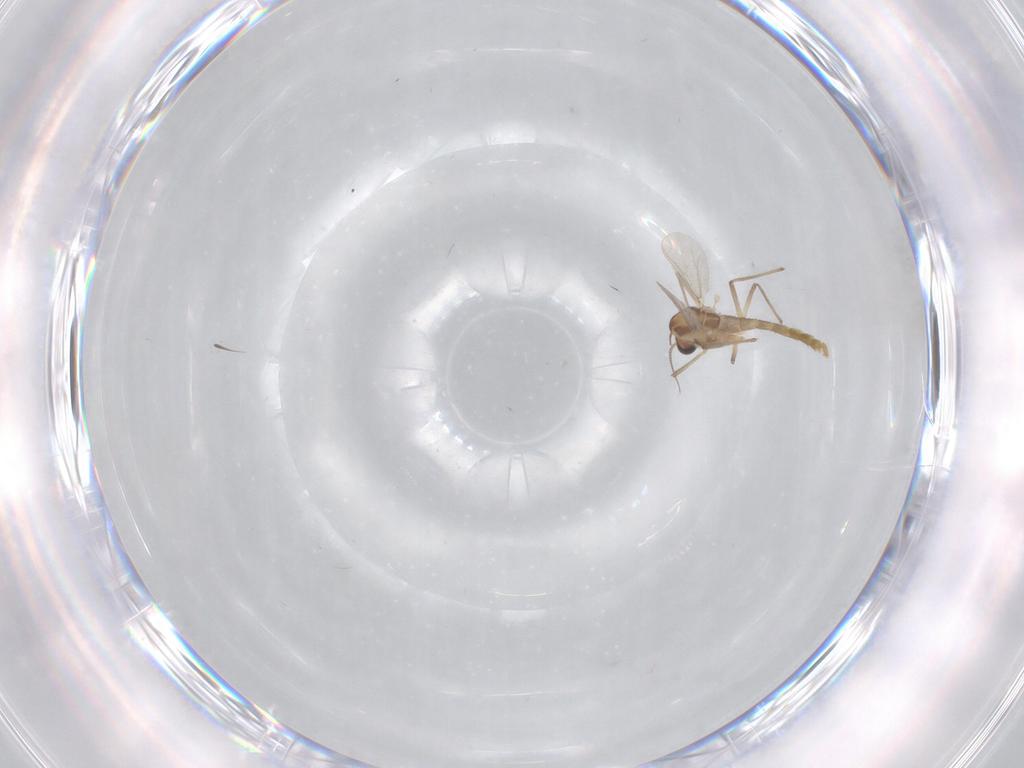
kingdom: Animalia
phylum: Arthropoda
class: Insecta
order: Diptera
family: Chironomidae
